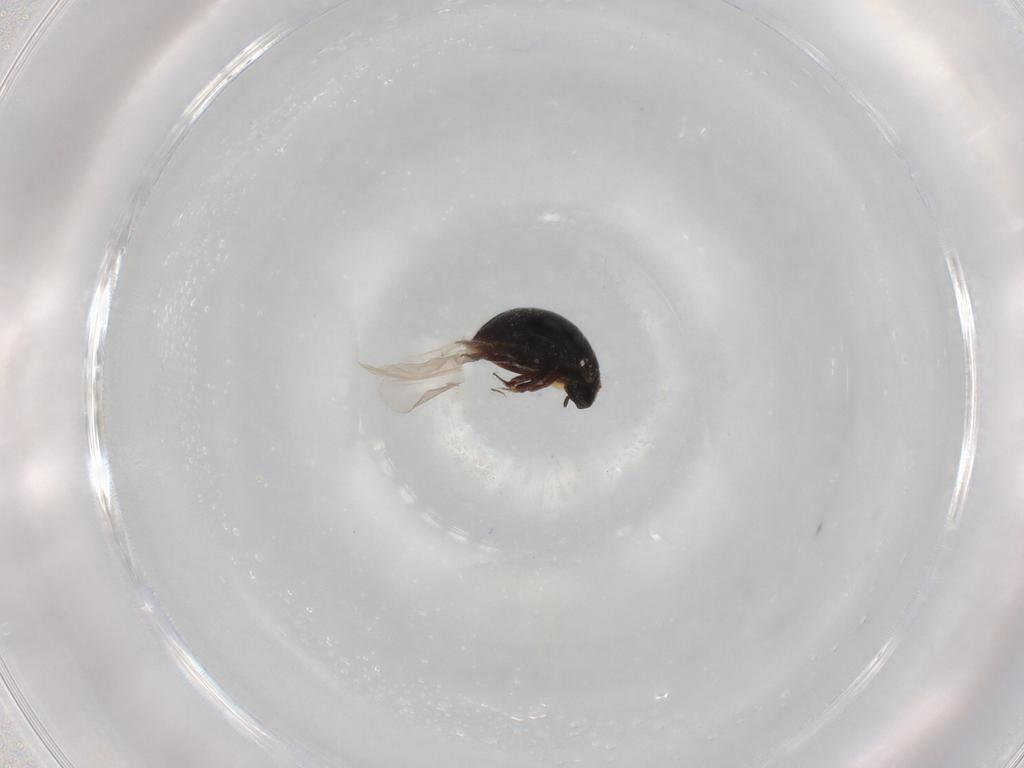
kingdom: Animalia
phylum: Arthropoda
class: Insecta
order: Coleoptera
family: Hydrophilidae
